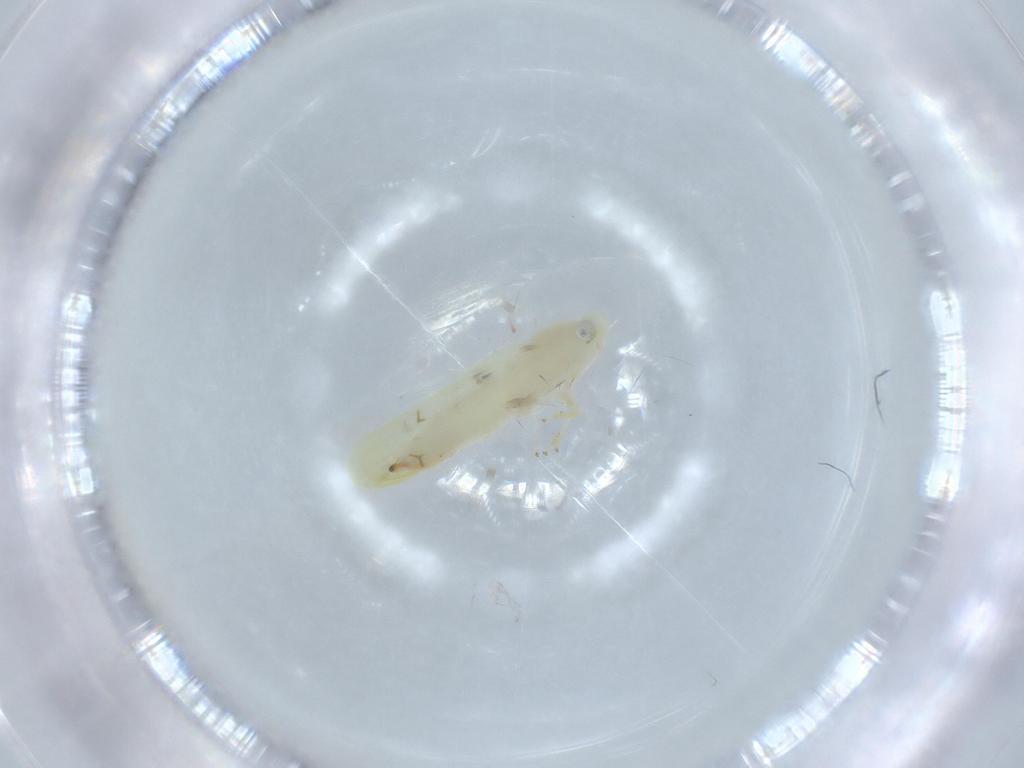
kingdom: Animalia
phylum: Arthropoda
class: Insecta
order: Hemiptera
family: Cicadellidae
